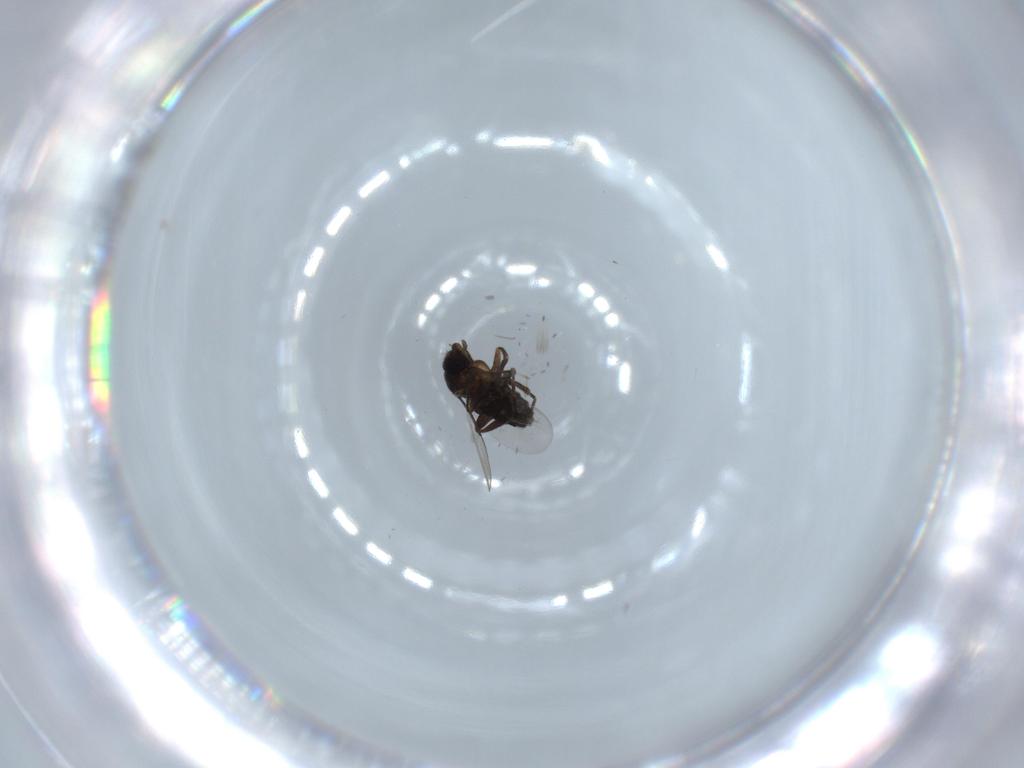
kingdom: Animalia
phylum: Arthropoda
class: Insecta
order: Diptera
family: Phoridae
